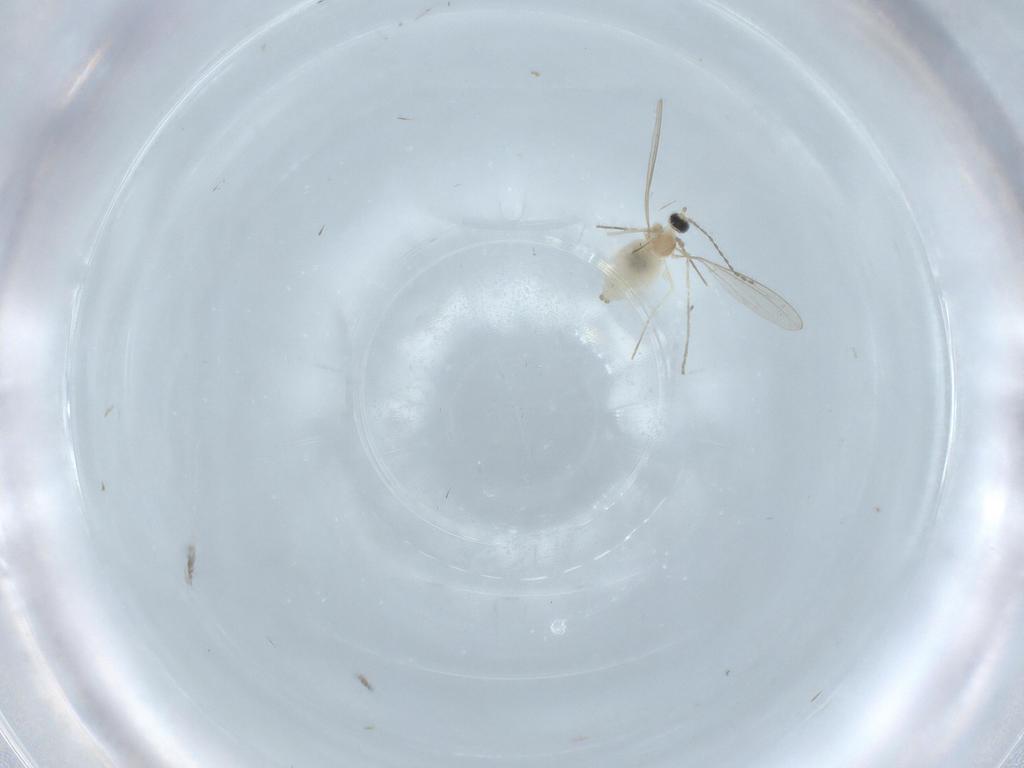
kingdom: Animalia
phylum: Arthropoda
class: Insecta
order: Diptera
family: Cecidomyiidae
